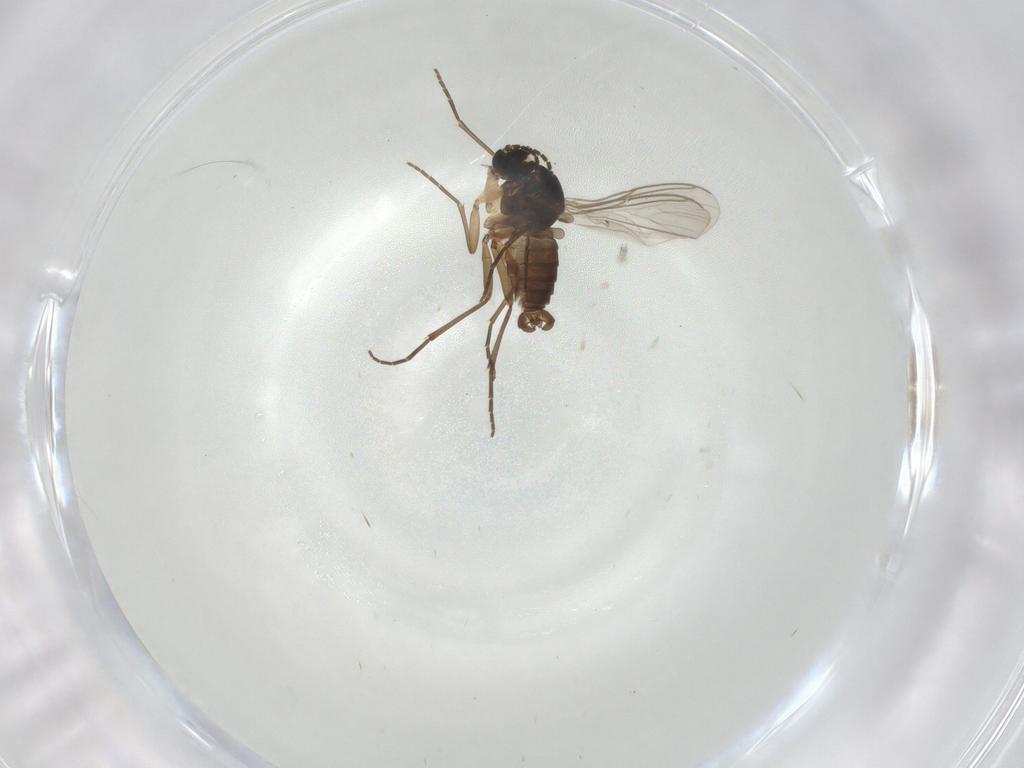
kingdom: Animalia
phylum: Arthropoda
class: Insecta
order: Diptera
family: Sciaridae
